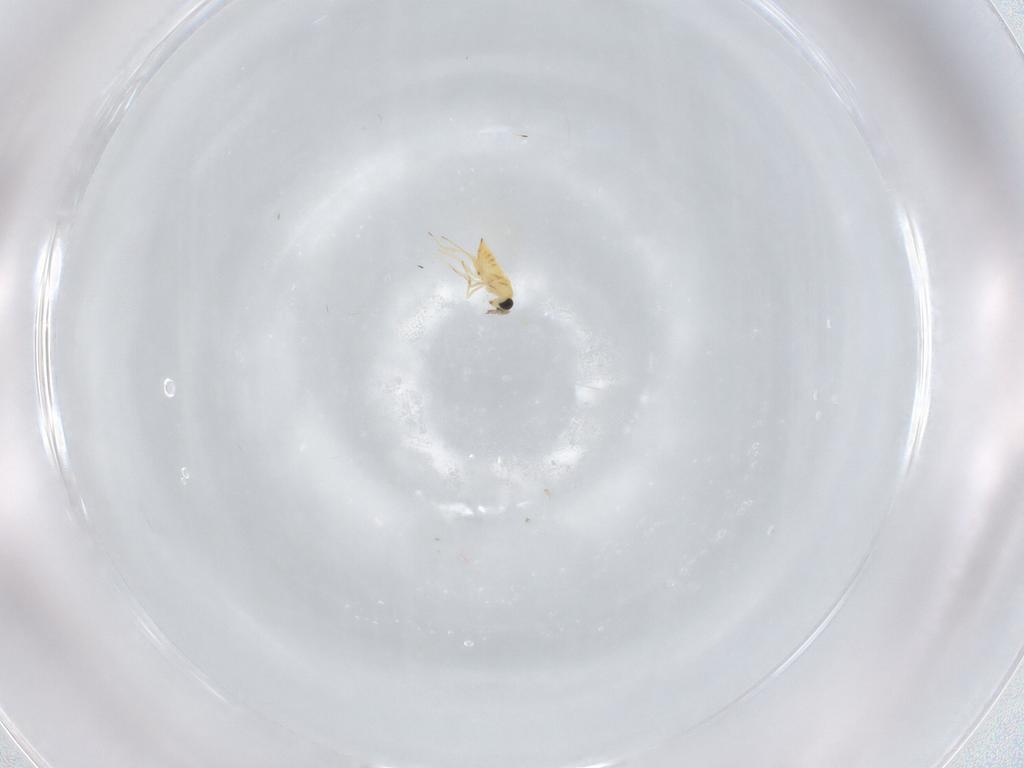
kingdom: Animalia
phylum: Arthropoda
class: Insecta
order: Hymenoptera
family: Trichogrammatidae
